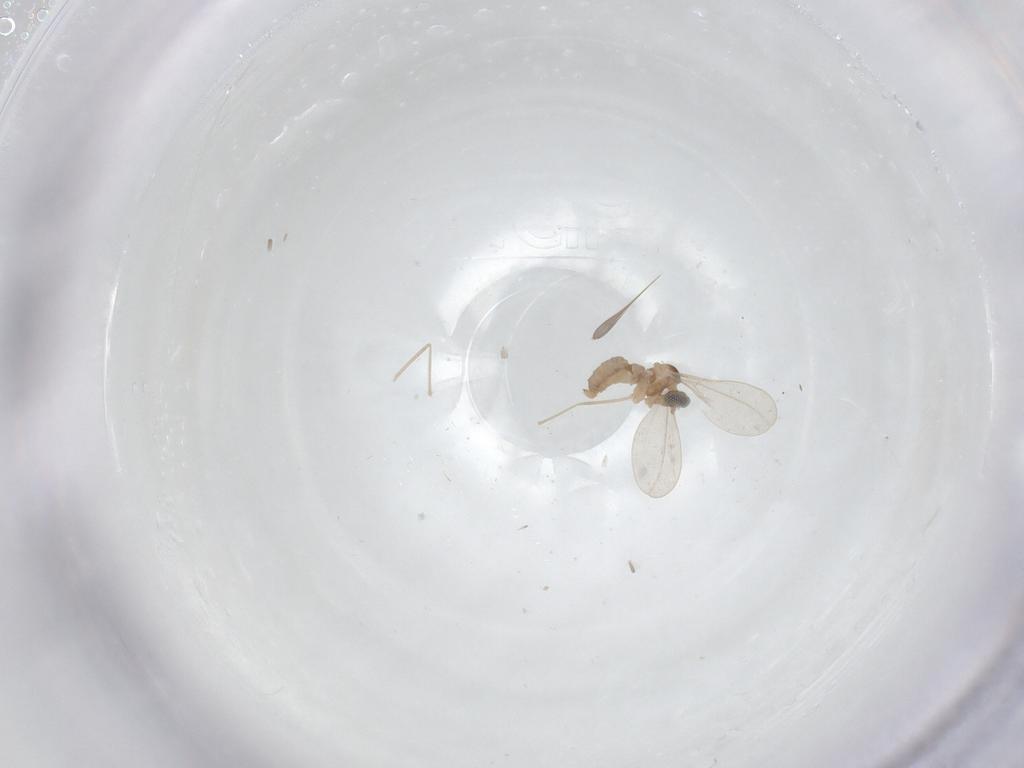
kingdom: Animalia
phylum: Arthropoda
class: Insecta
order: Diptera
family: Cecidomyiidae
